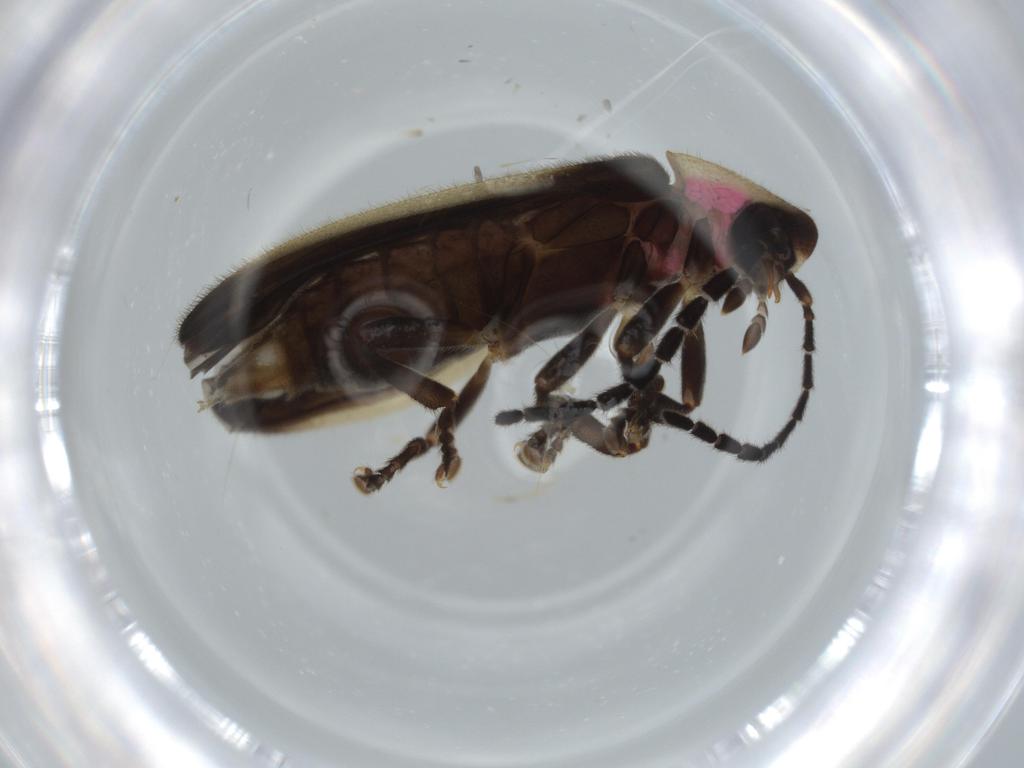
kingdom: Animalia
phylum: Arthropoda
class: Insecta
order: Coleoptera
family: Lampyridae
